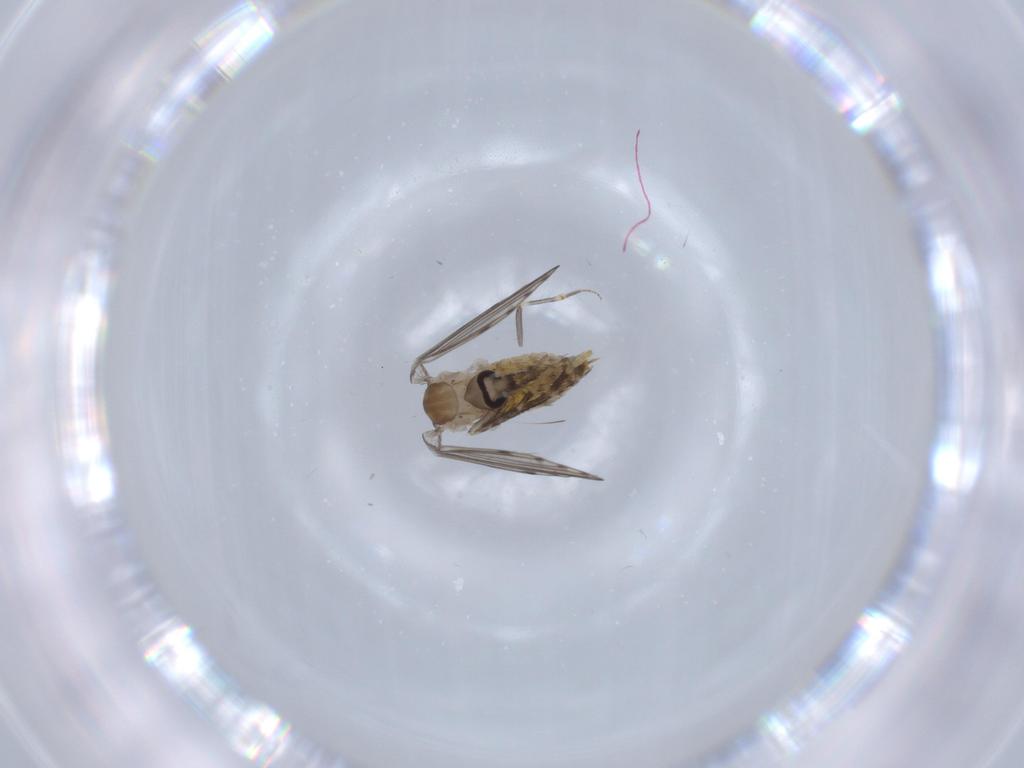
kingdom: Animalia
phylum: Arthropoda
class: Insecta
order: Diptera
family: Psychodidae
